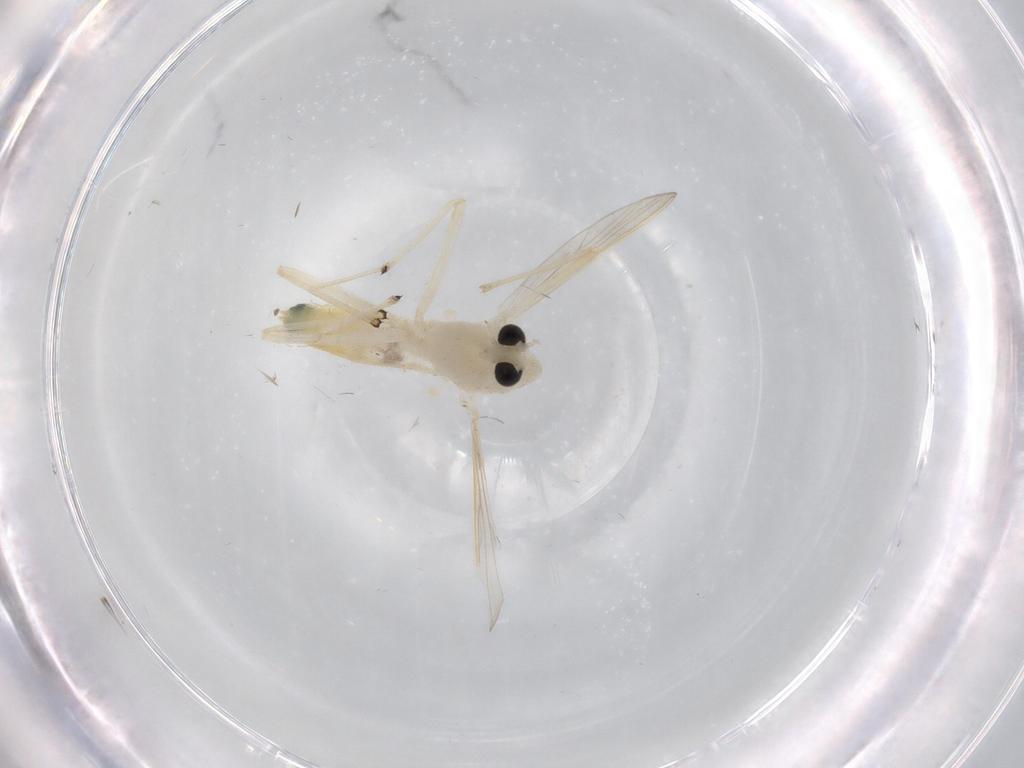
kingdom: Animalia
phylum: Arthropoda
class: Insecta
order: Diptera
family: Chironomidae
